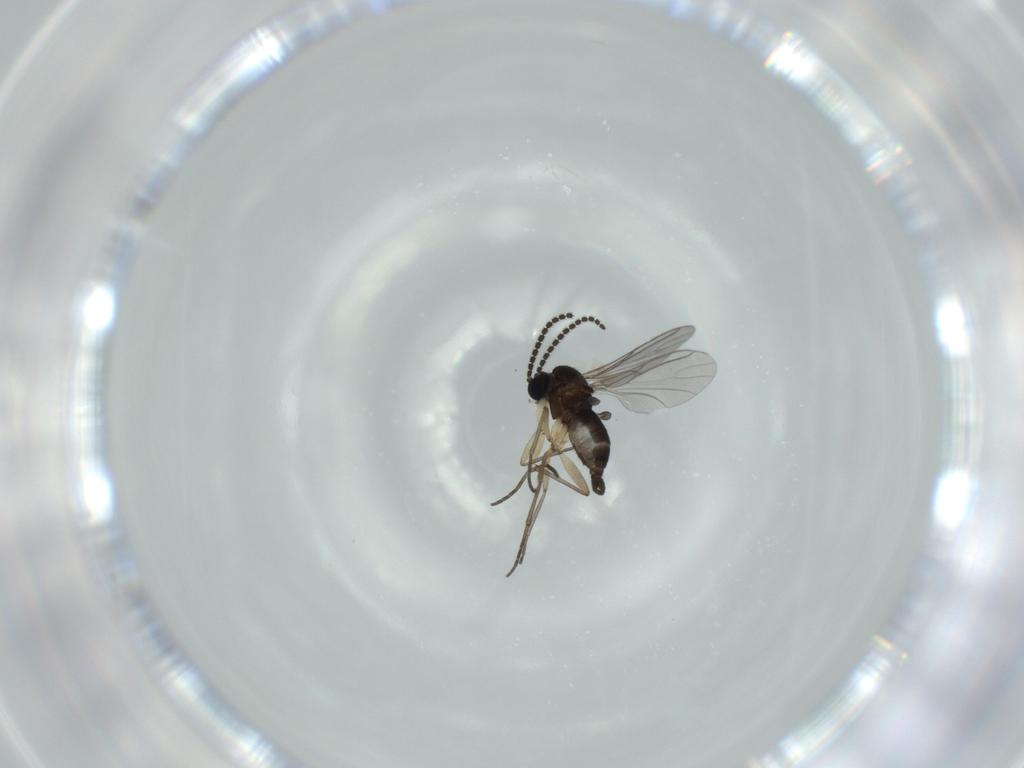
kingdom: Animalia
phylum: Arthropoda
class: Insecta
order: Diptera
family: Sciaridae
